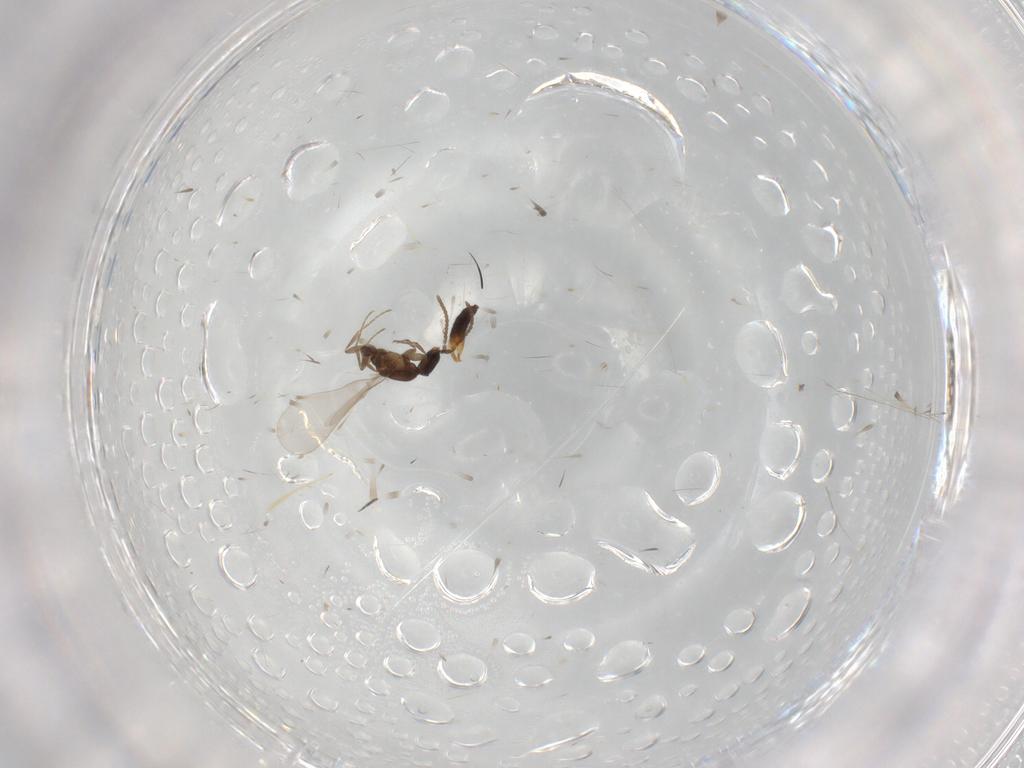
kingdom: Animalia
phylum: Arthropoda
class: Insecta
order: Hymenoptera
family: Formicidae
